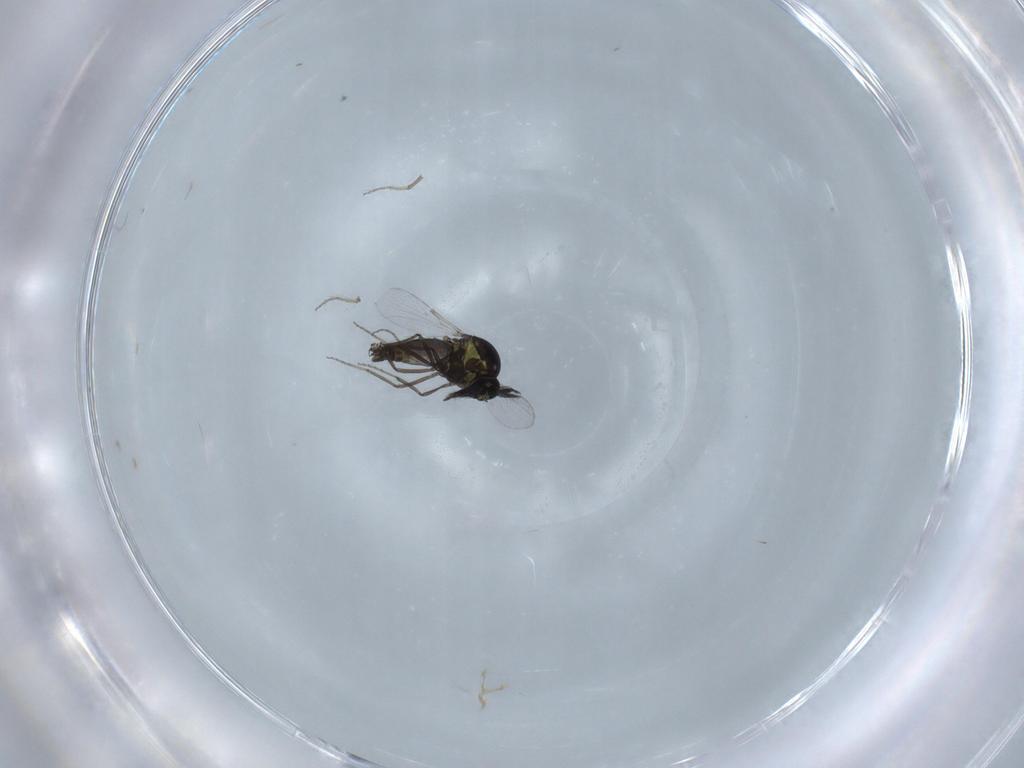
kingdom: Animalia
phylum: Arthropoda
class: Insecta
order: Diptera
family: Ceratopogonidae
